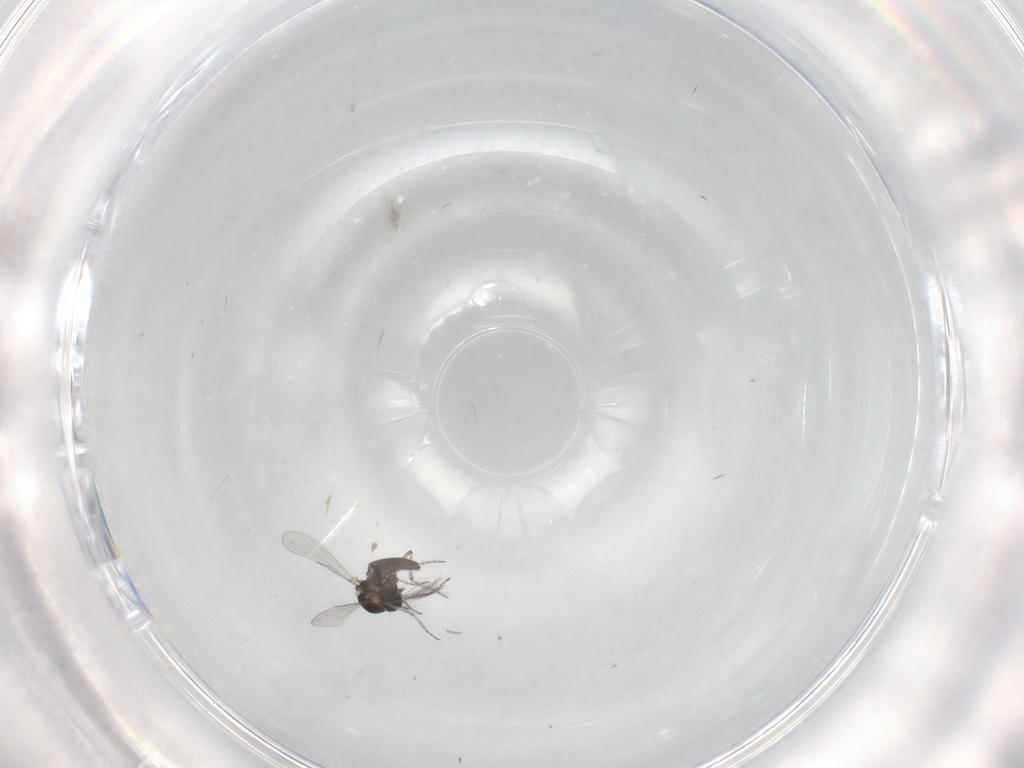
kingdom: Animalia
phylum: Arthropoda
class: Insecta
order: Diptera
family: Ceratopogonidae
